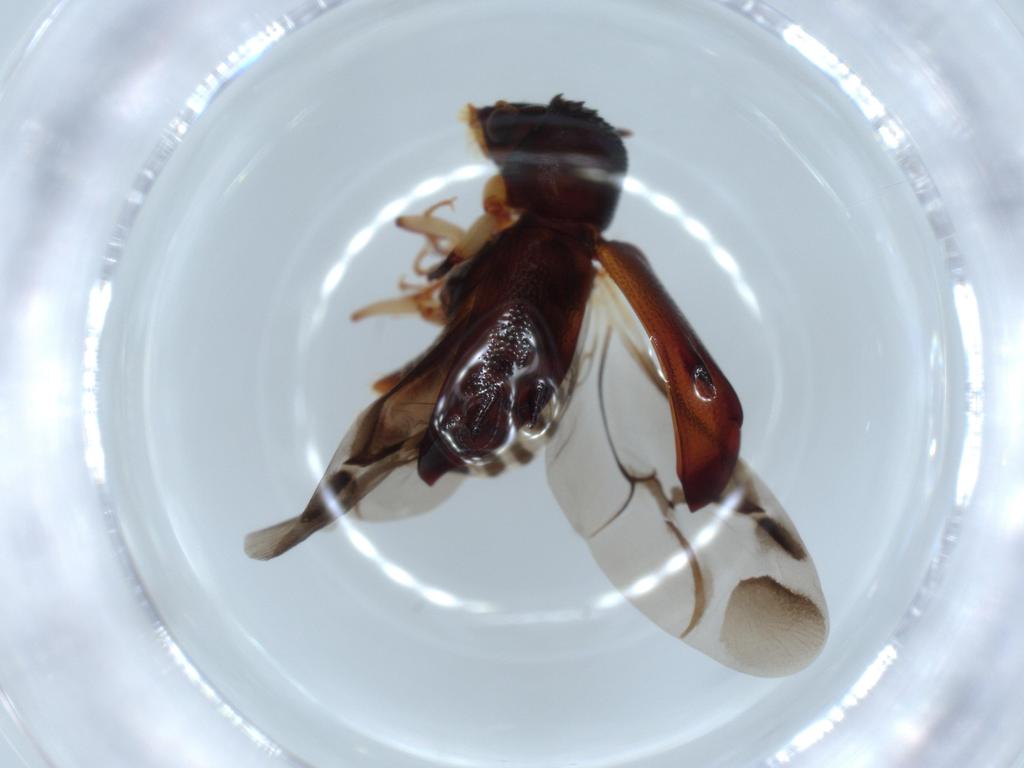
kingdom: Animalia
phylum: Arthropoda
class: Insecta
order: Coleoptera
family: Bostrichidae
